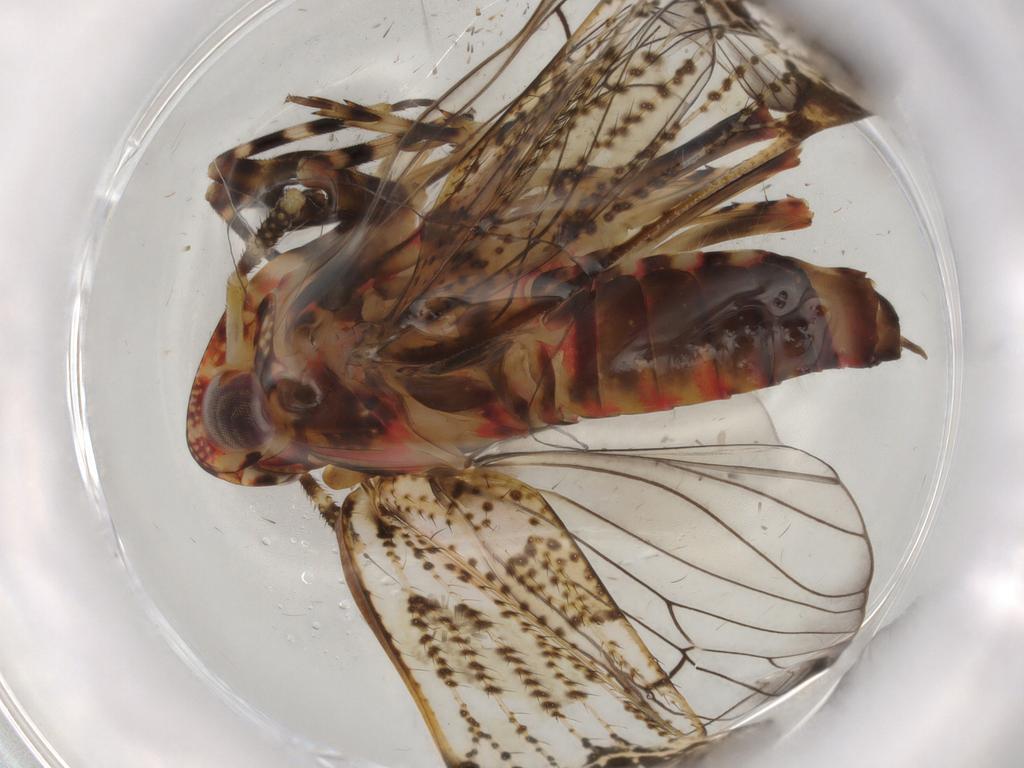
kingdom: Animalia
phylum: Arthropoda
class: Insecta
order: Hemiptera
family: Delphacidae
